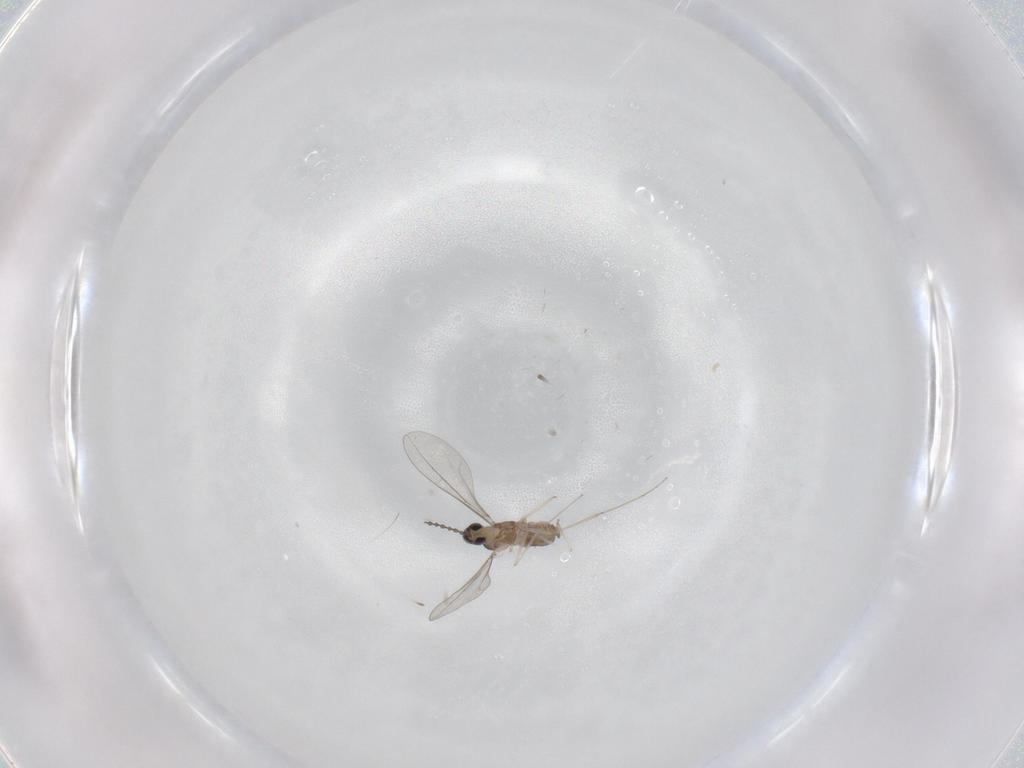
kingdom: Animalia
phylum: Arthropoda
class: Insecta
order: Diptera
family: Cecidomyiidae
